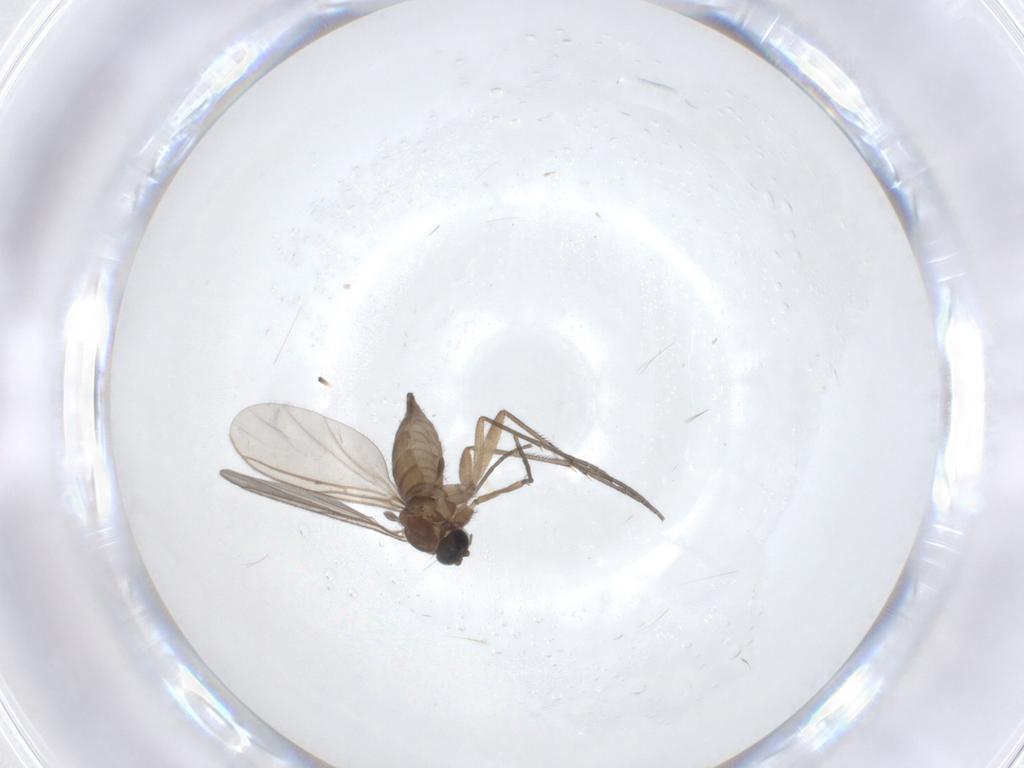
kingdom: Animalia
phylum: Arthropoda
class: Insecta
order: Diptera
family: Sciaridae
